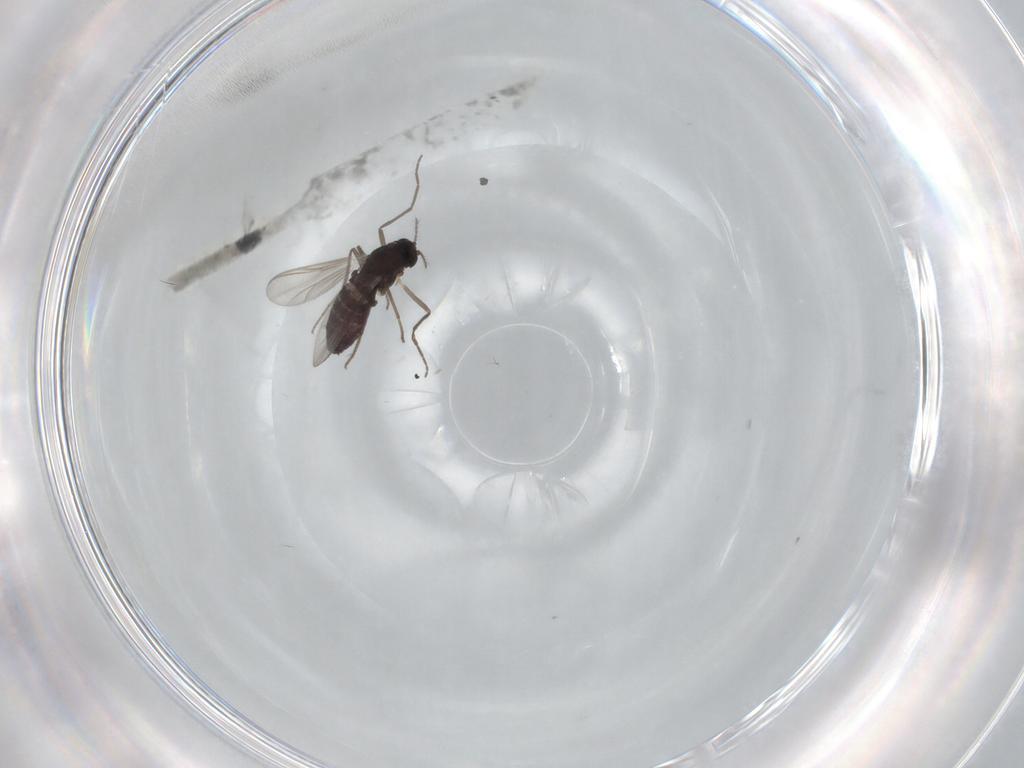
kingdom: Animalia
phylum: Arthropoda
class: Insecta
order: Diptera
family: Chironomidae
